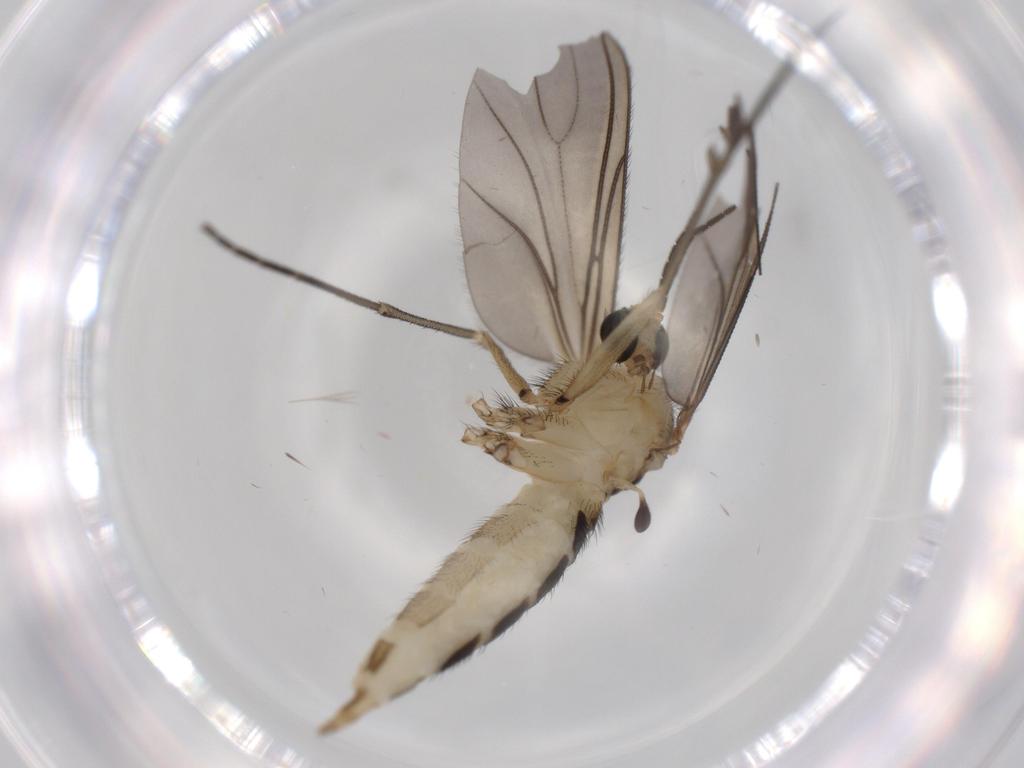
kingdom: Animalia
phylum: Arthropoda
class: Insecta
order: Diptera
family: Sciaridae
